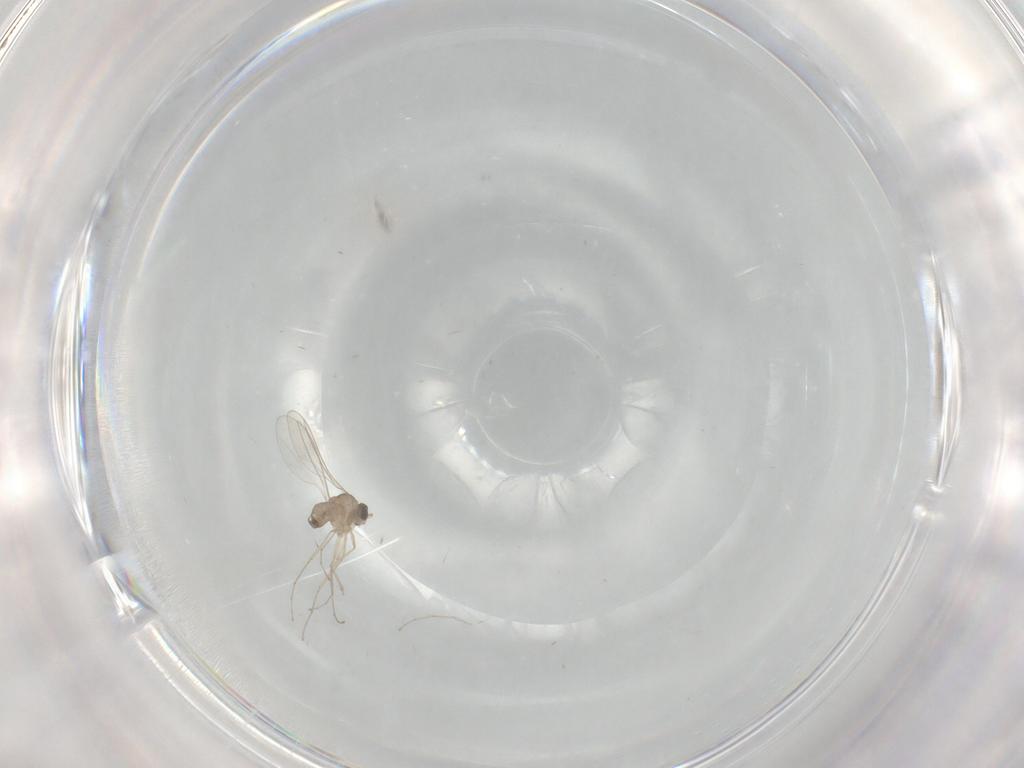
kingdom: Animalia
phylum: Arthropoda
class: Insecta
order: Diptera
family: Cecidomyiidae
